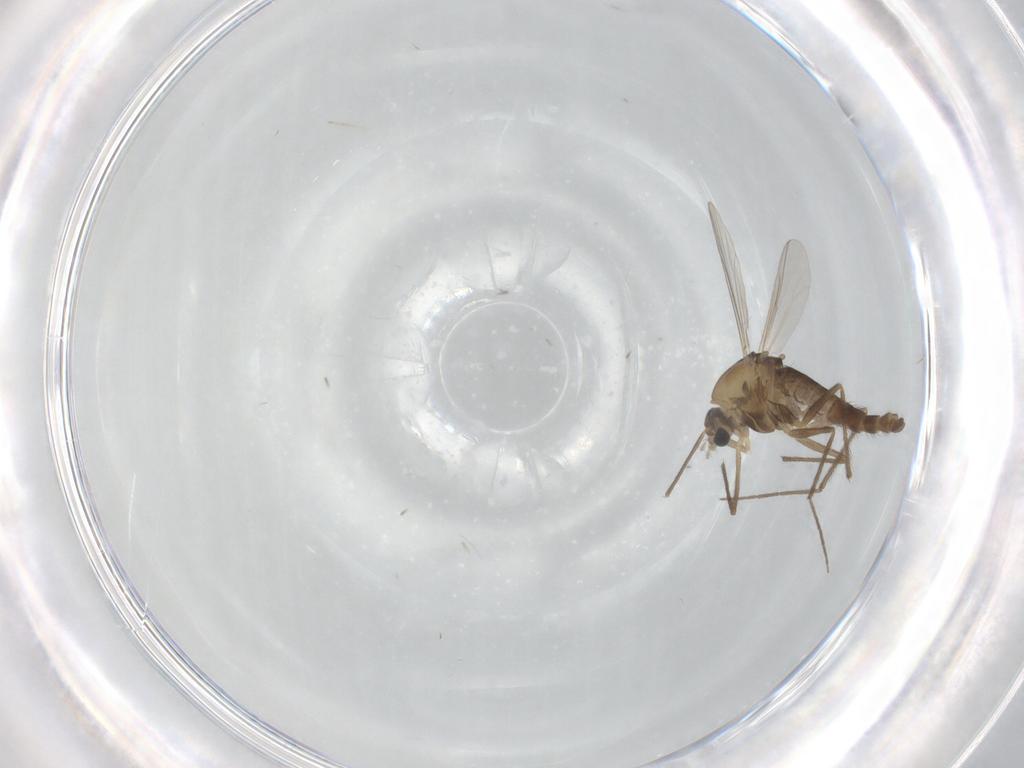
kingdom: Animalia
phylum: Arthropoda
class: Insecta
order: Diptera
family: Chironomidae
